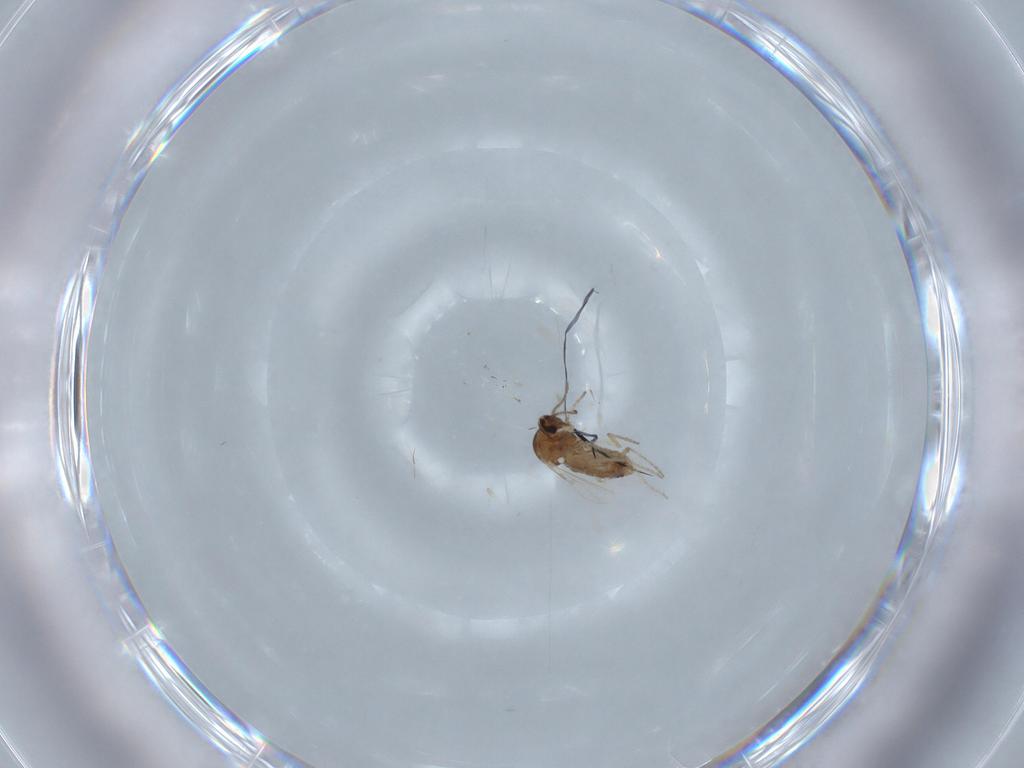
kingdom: Animalia
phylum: Arthropoda
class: Insecta
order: Diptera
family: Ceratopogonidae
